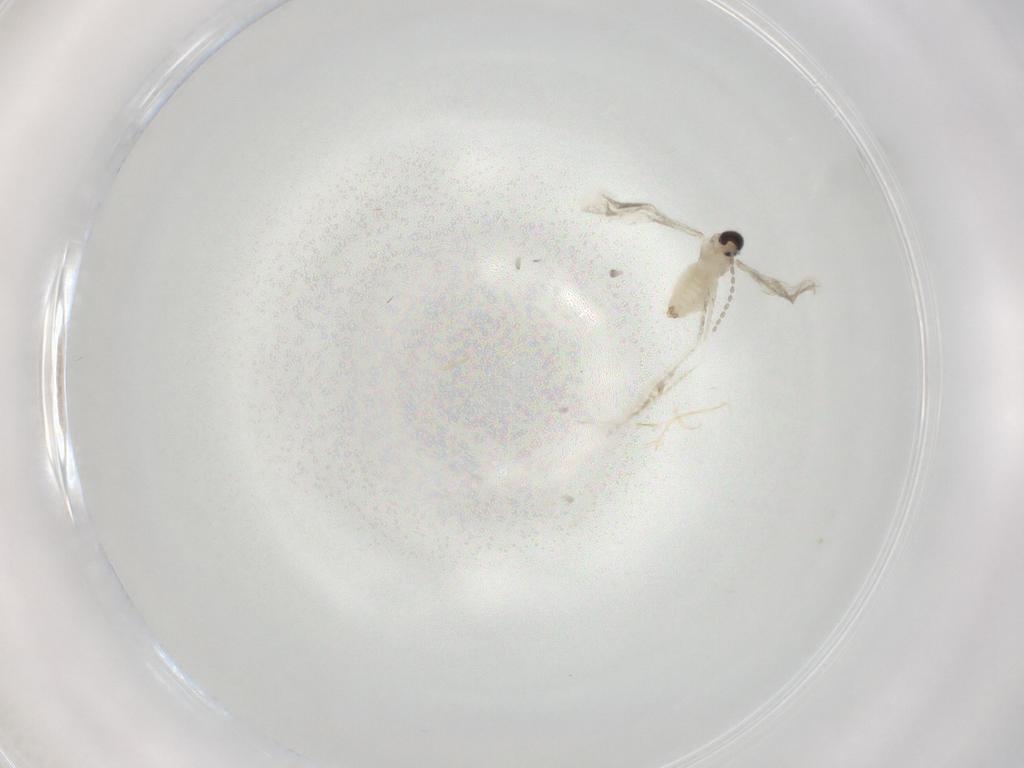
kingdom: Animalia
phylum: Arthropoda
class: Insecta
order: Diptera
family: Cecidomyiidae
